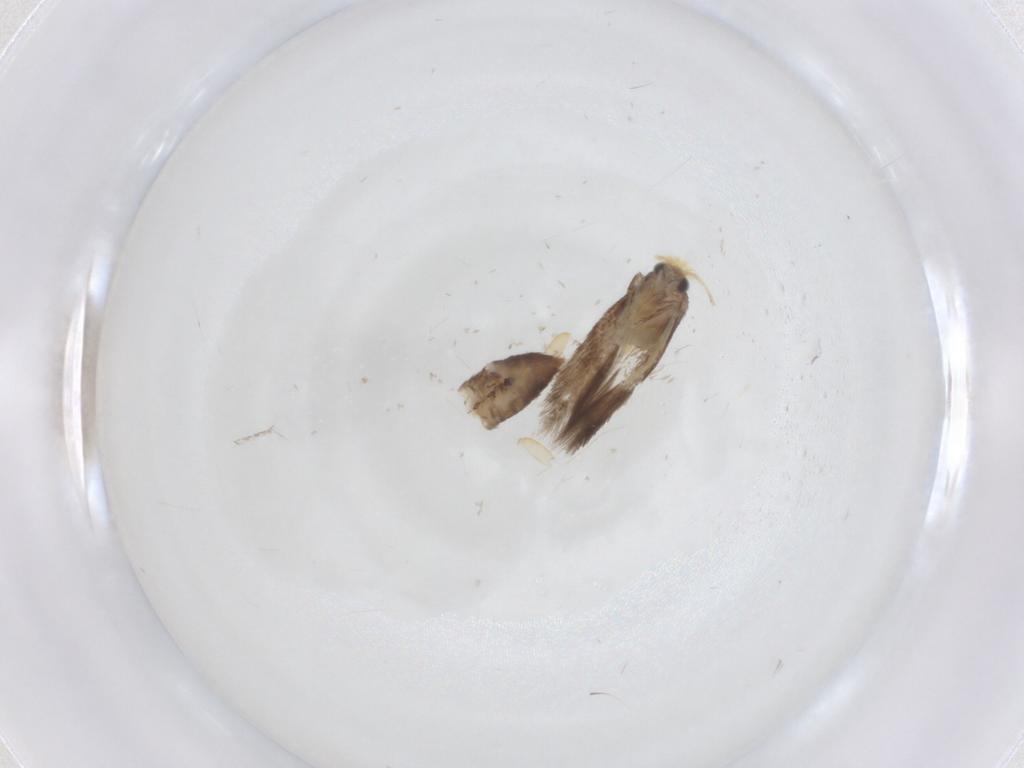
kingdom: Animalia
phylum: Arthropoda
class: Insecta
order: Lepidoptera
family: Nepticulidae
